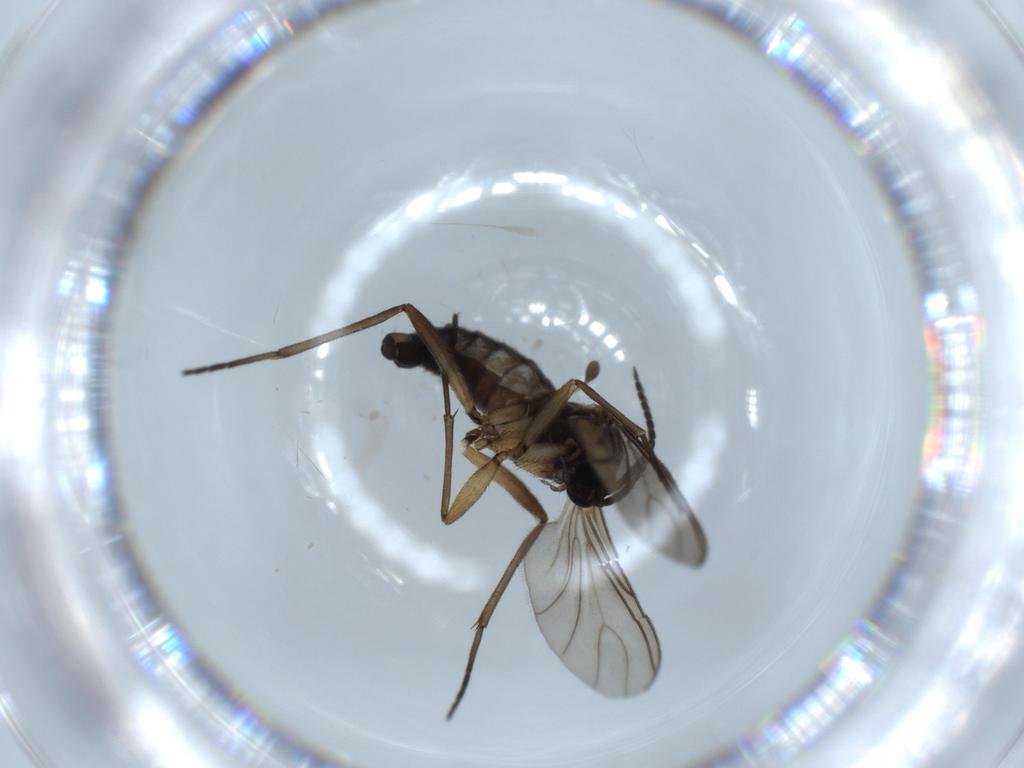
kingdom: Animalia
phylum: Arthropoda
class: Insecta
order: Diptera
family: Sciaridae
